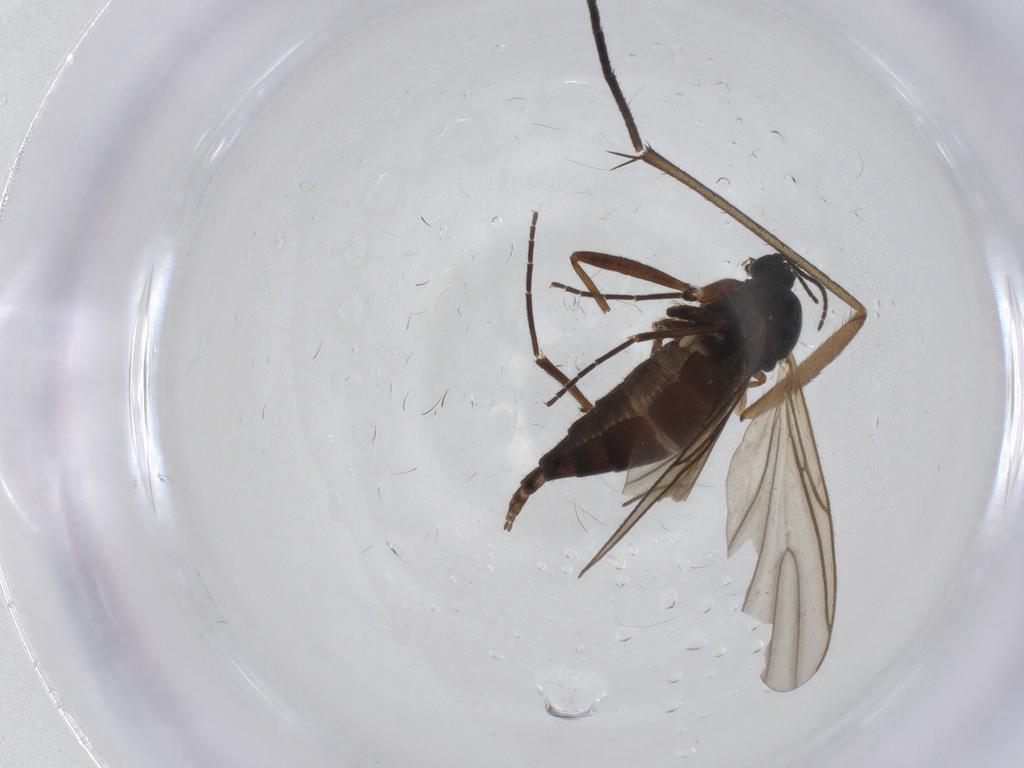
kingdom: Animalia
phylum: Arthropoda
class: Insecta
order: Diptera
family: Sciaridae
